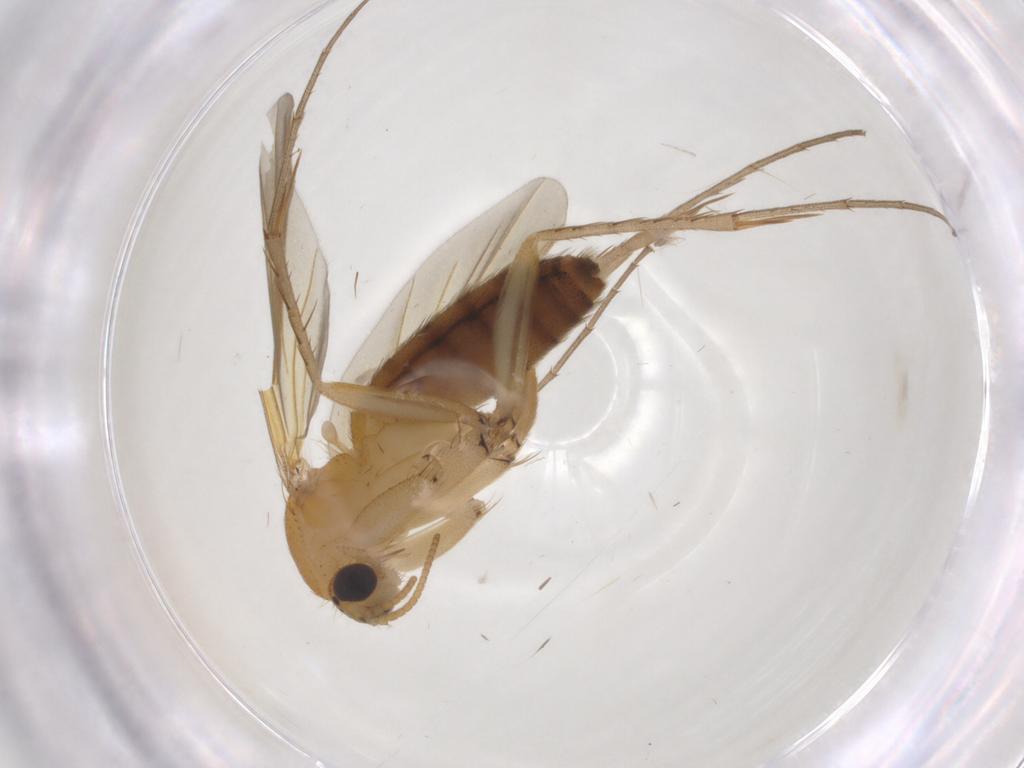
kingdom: Animalia
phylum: Arthropoda
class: Insecta
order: Diptera
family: Mycetophilidae
